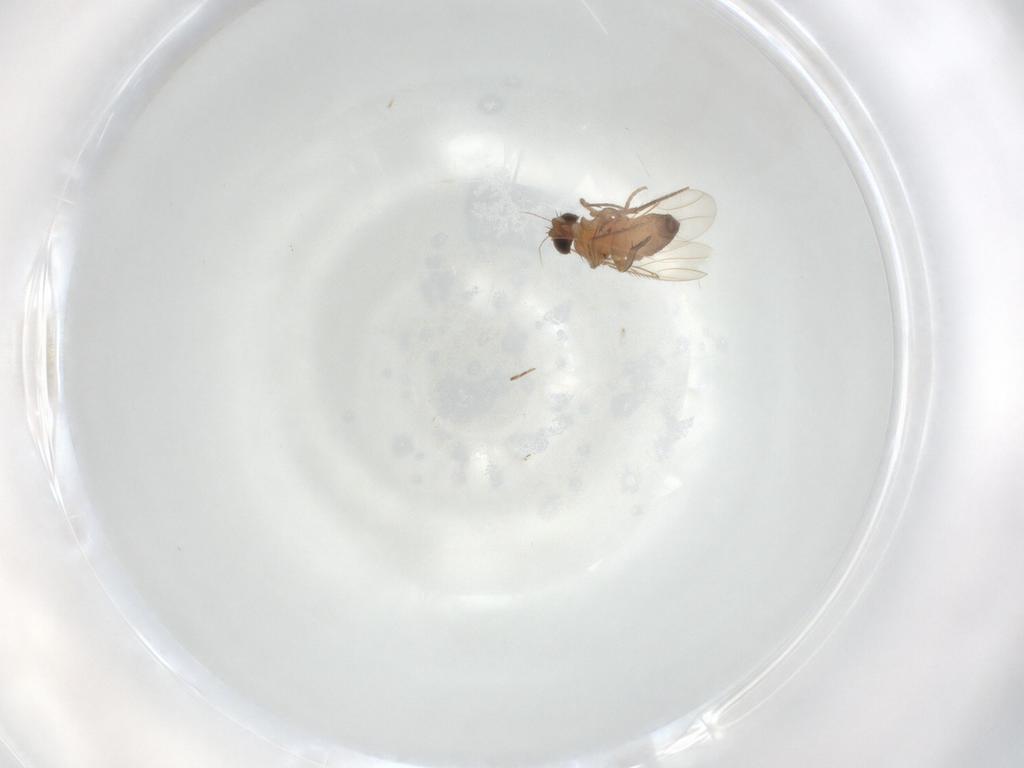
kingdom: Animalia
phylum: Arthropoda
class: Insecta
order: Diptera
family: Phoridae
